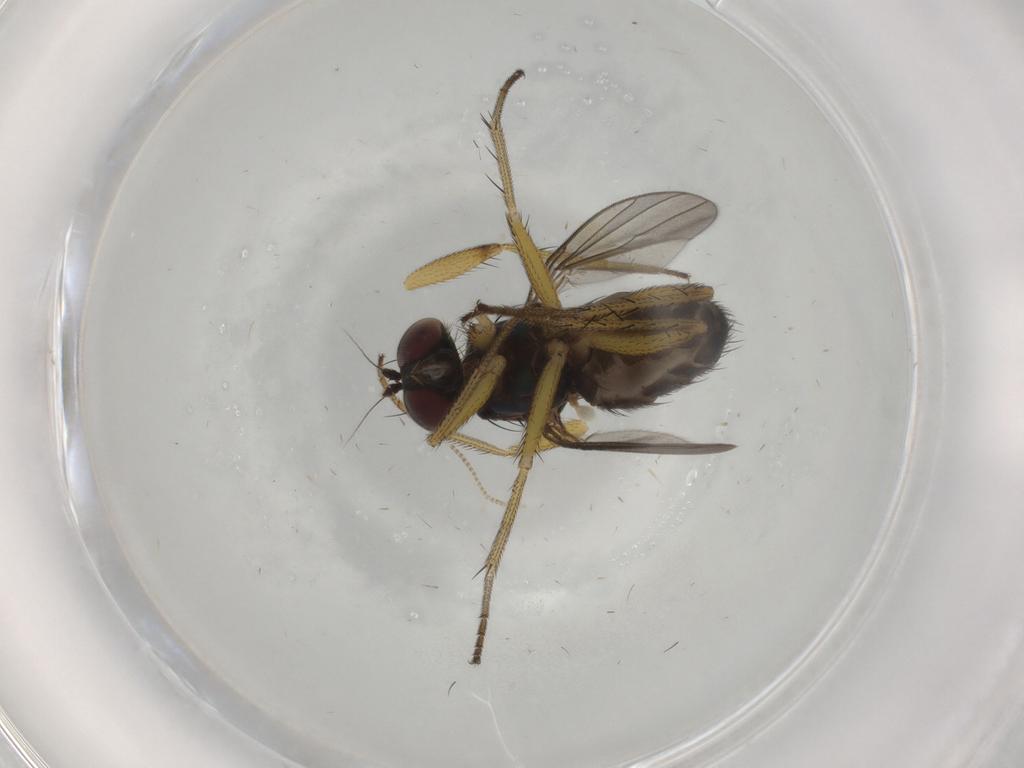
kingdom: Animalia
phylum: Arthropoda
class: Insecta
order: Diptera
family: Dolichopodidae
